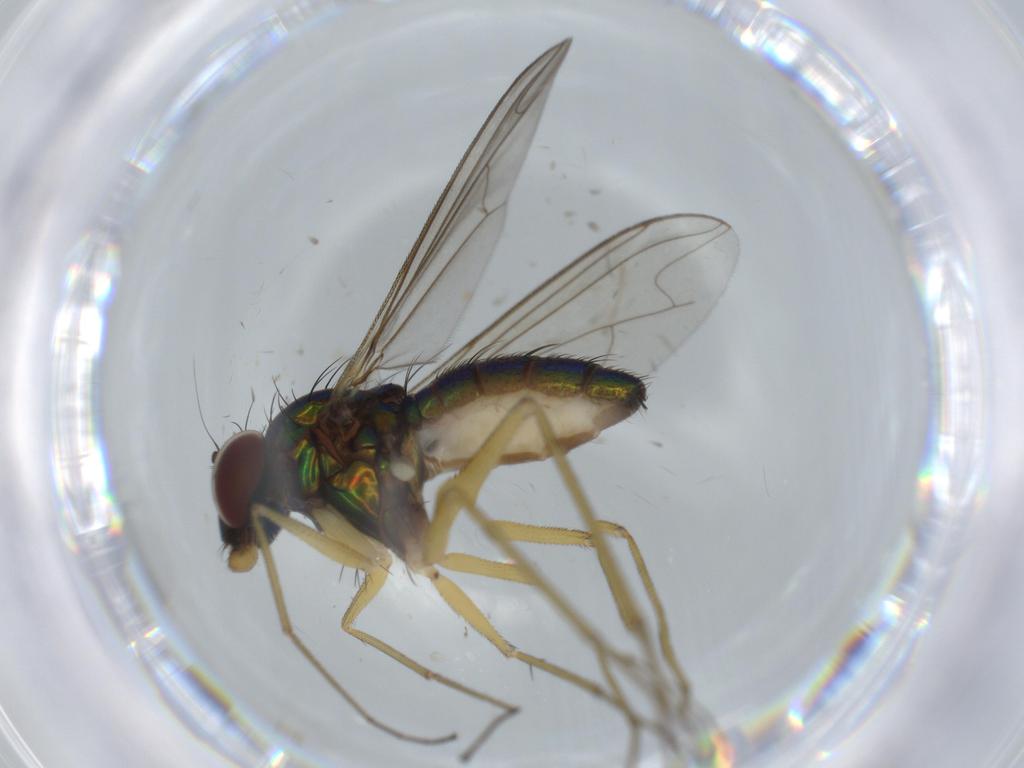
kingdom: Animalia
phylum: Arthropoda
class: Insecta
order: Diptera
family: Dolichopodidae
